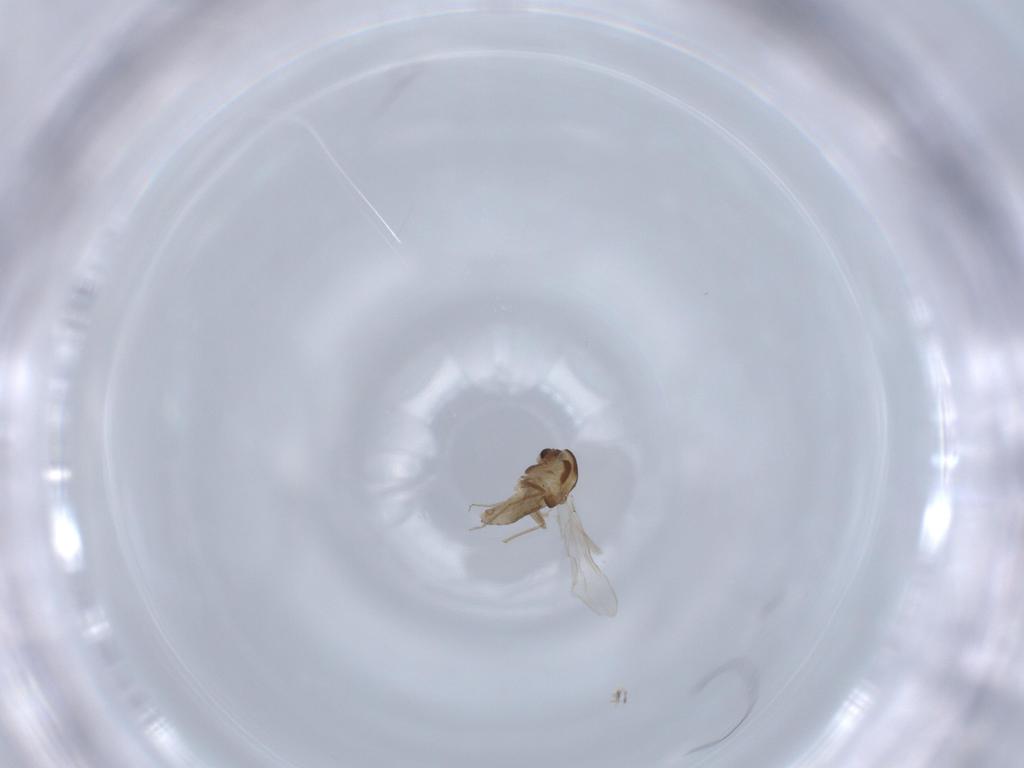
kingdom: Animalia
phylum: Arthropoda
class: Insecta
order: Diptera
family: Chironomidae
